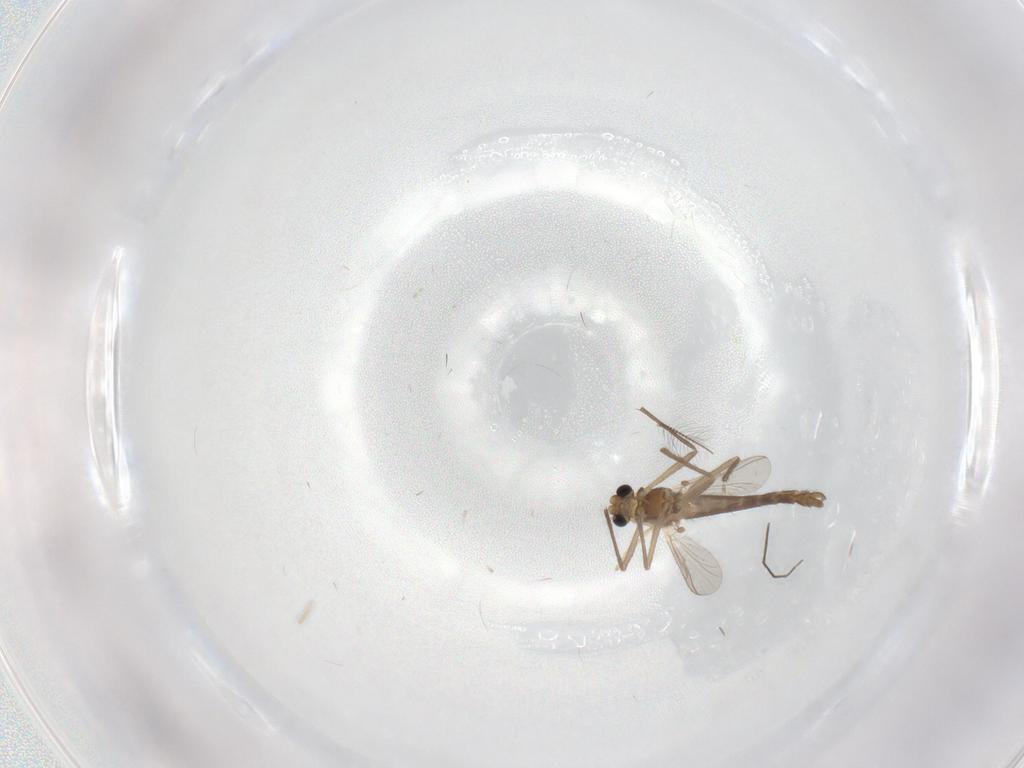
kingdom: Animalia
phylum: Arthropoda
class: Insecta
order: Diptera
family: Chironomidae
